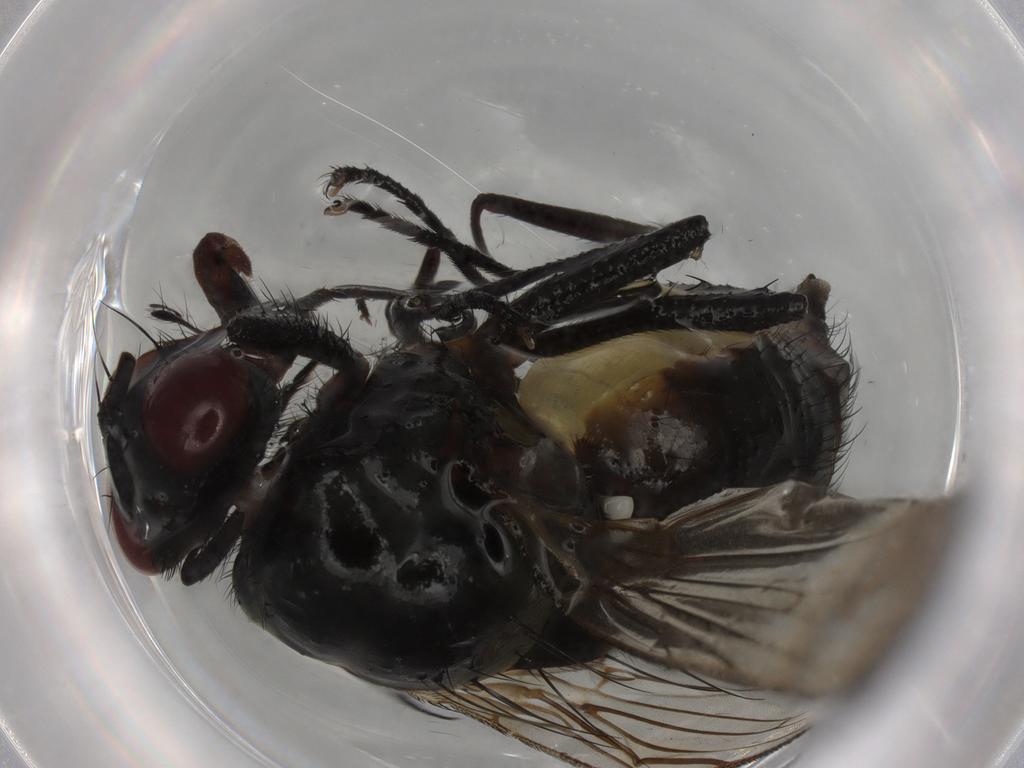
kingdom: Animalia
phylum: Arthropoda
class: Insecta
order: Diptera
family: Anthomyiidae
